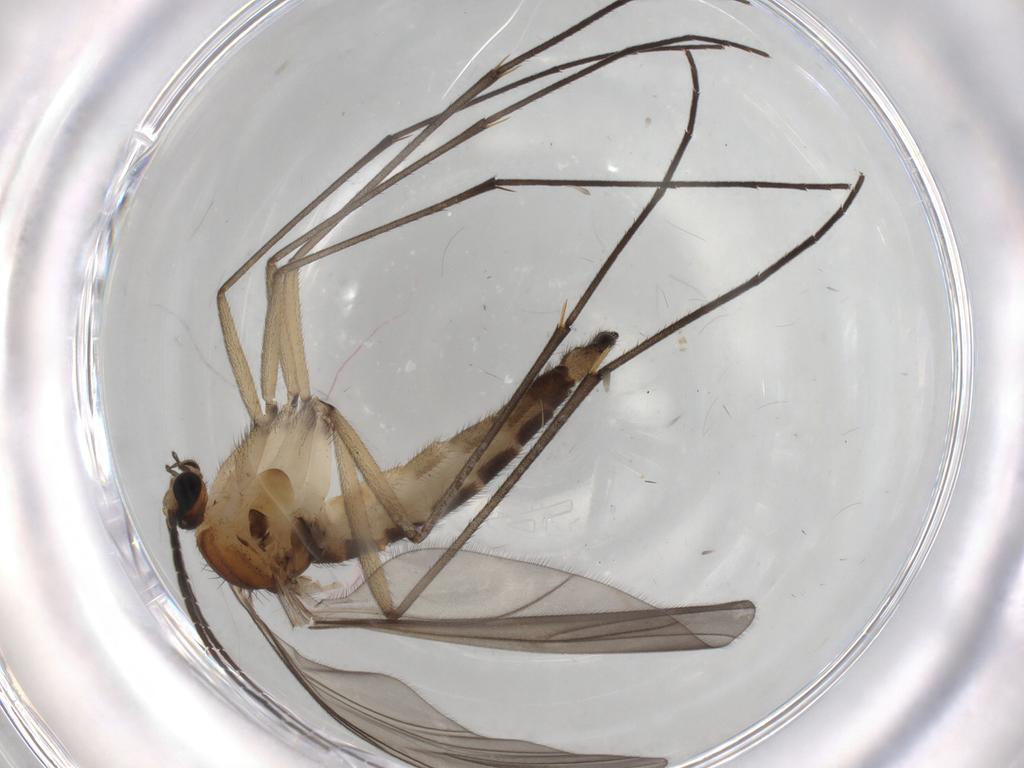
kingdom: Animalia
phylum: Arthropoda
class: Insecta
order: Diptera
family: Sciaridae
